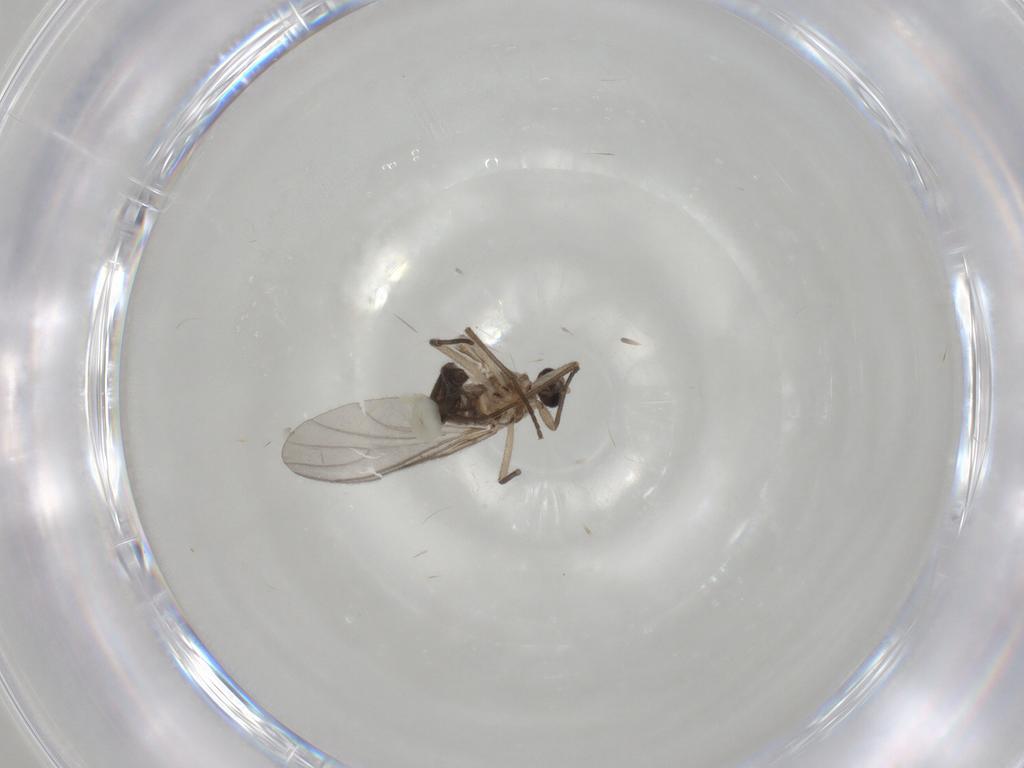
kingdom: Animalia
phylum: Arthropoda
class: Insecta
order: Diptera
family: Sciaridae
